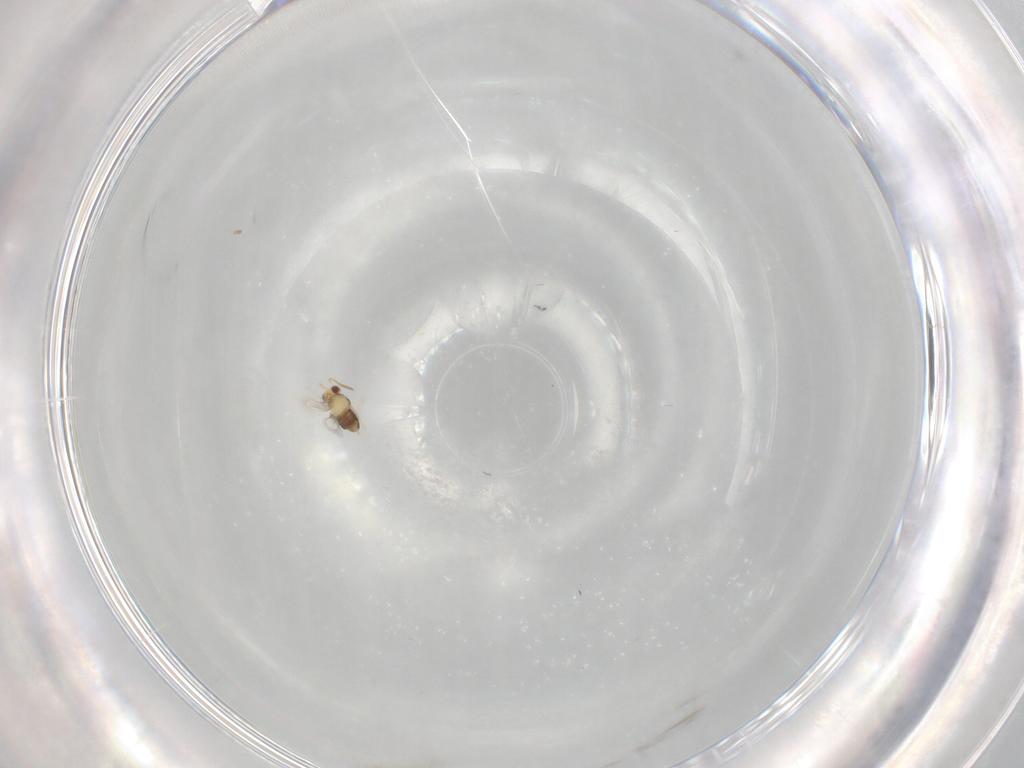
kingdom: Animalia
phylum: Arthropoda
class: Insecta
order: Hymenoptera
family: Aphelinidae
